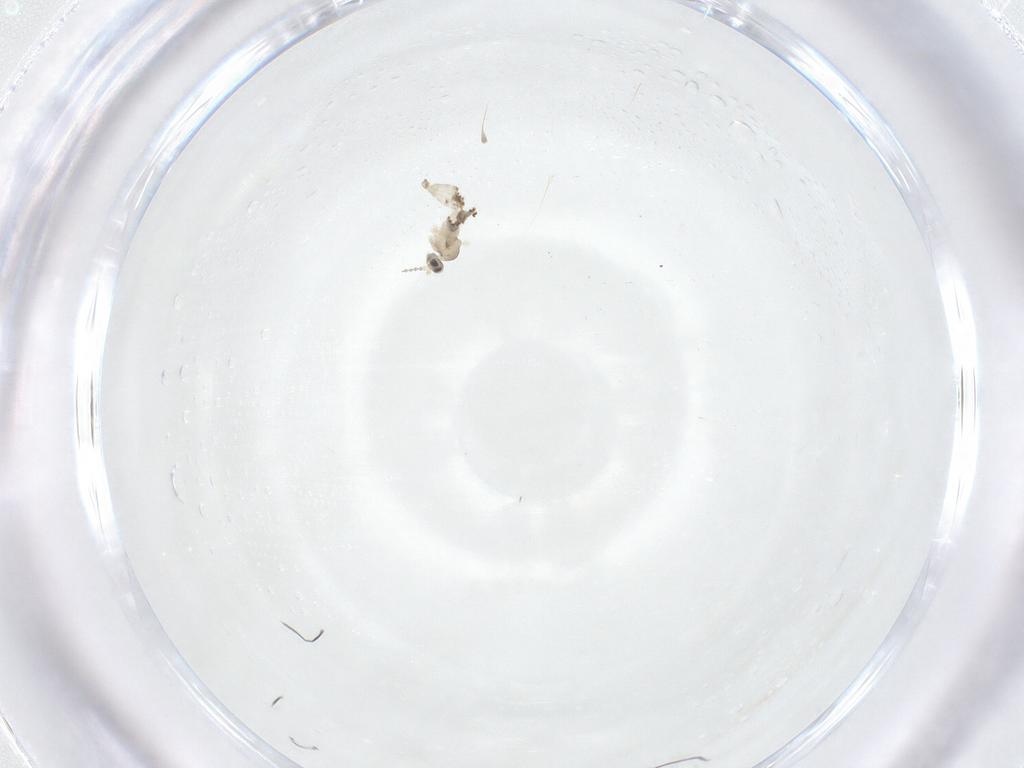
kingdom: Animalia
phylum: Arthropoda
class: Insecta
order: Diptera
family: Cecidomyiidae
